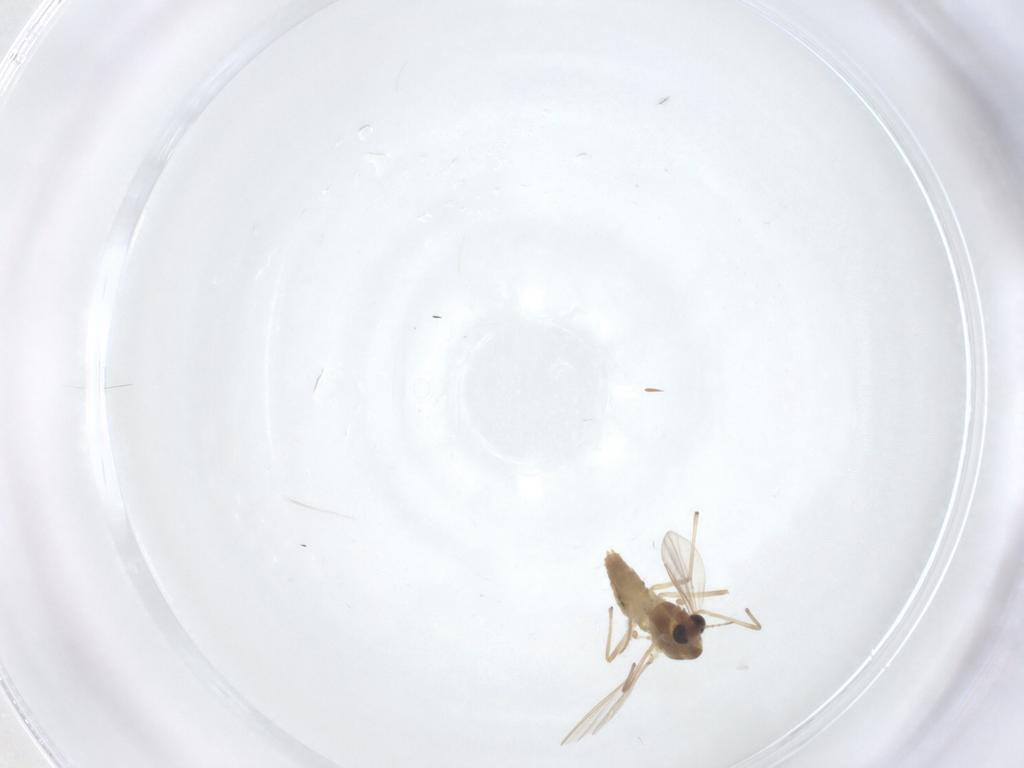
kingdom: Animalia
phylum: Arthropoda
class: Insecta
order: Diptera
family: Chironomidae
